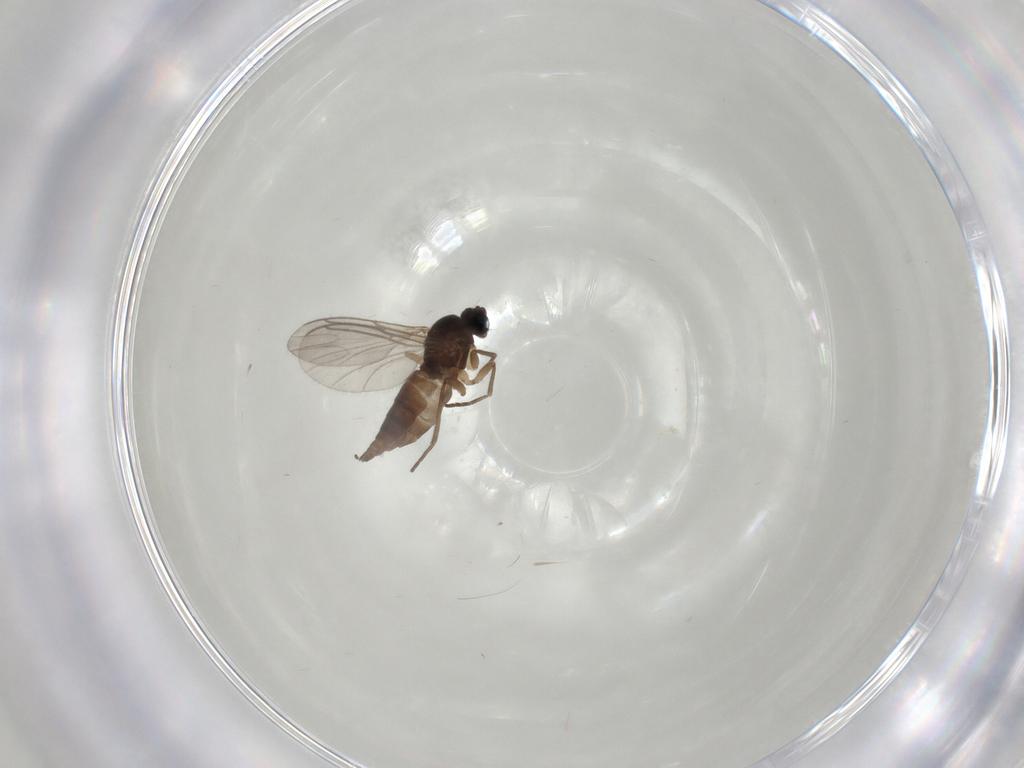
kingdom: Animalia
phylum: Arthropoda
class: Insecta
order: Diptera
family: Sciaridae
